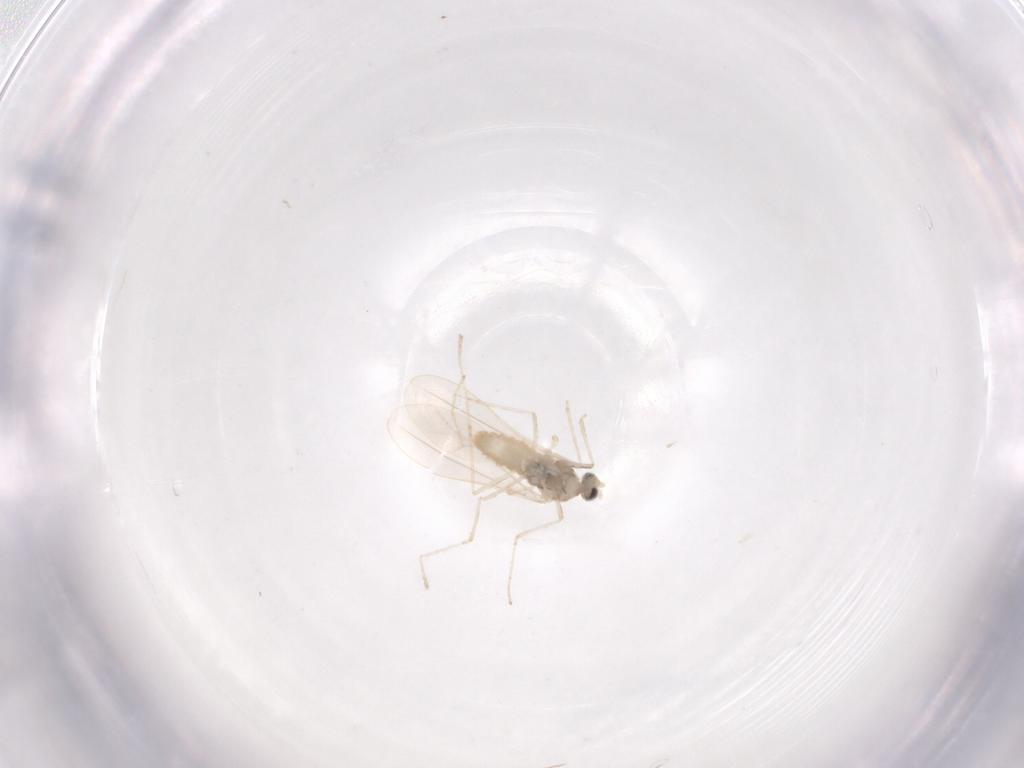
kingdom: Animalia
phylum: Arthropoda
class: Insecta
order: Diptera
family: Cecidomyiidae
